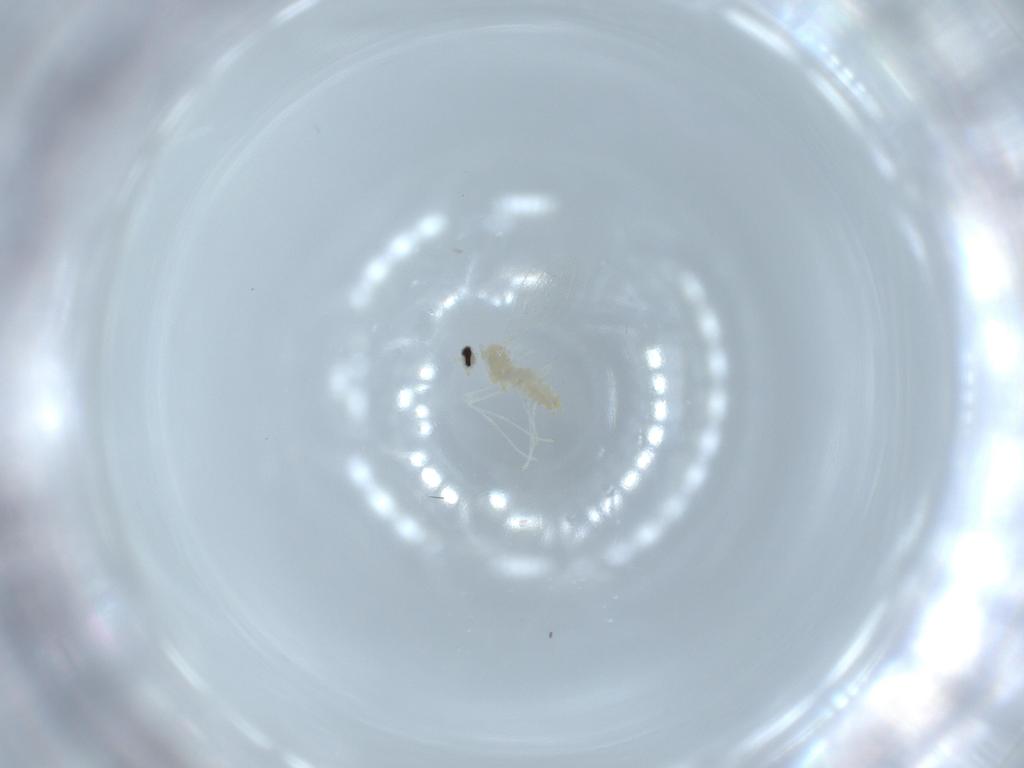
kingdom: Animalia
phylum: Arthropoda
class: Insecta
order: Diptera
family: Cecidomyiidae
